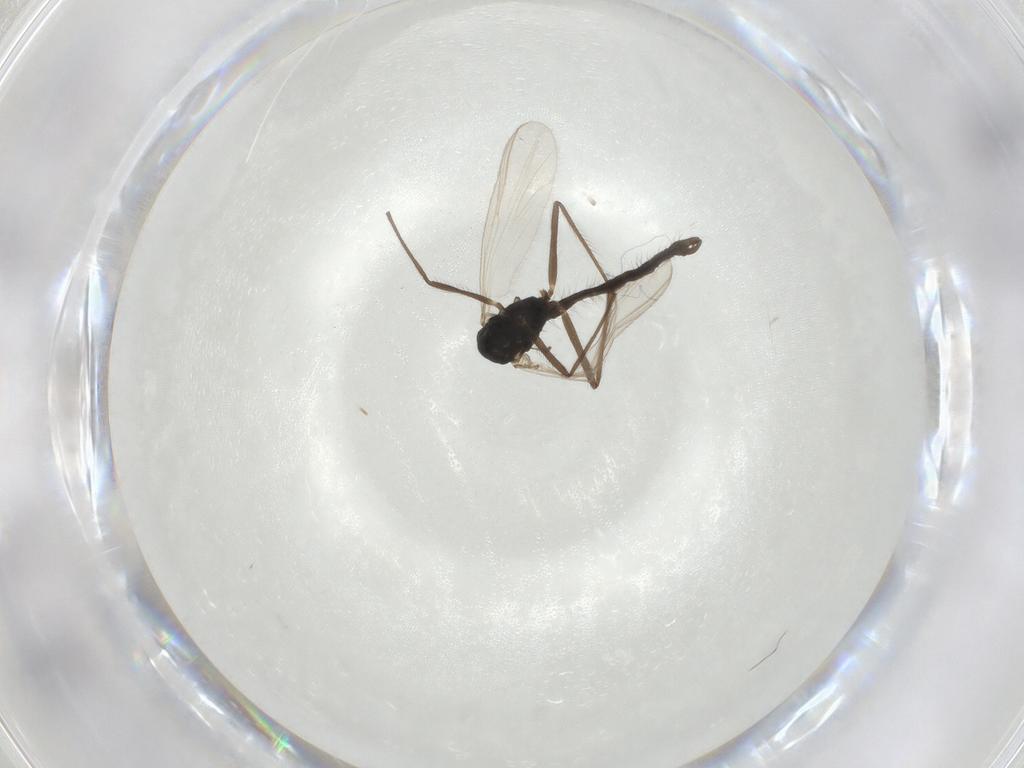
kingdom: Animalia
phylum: Arthropoda
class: Insecta
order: Diptera
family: Chironomidae
